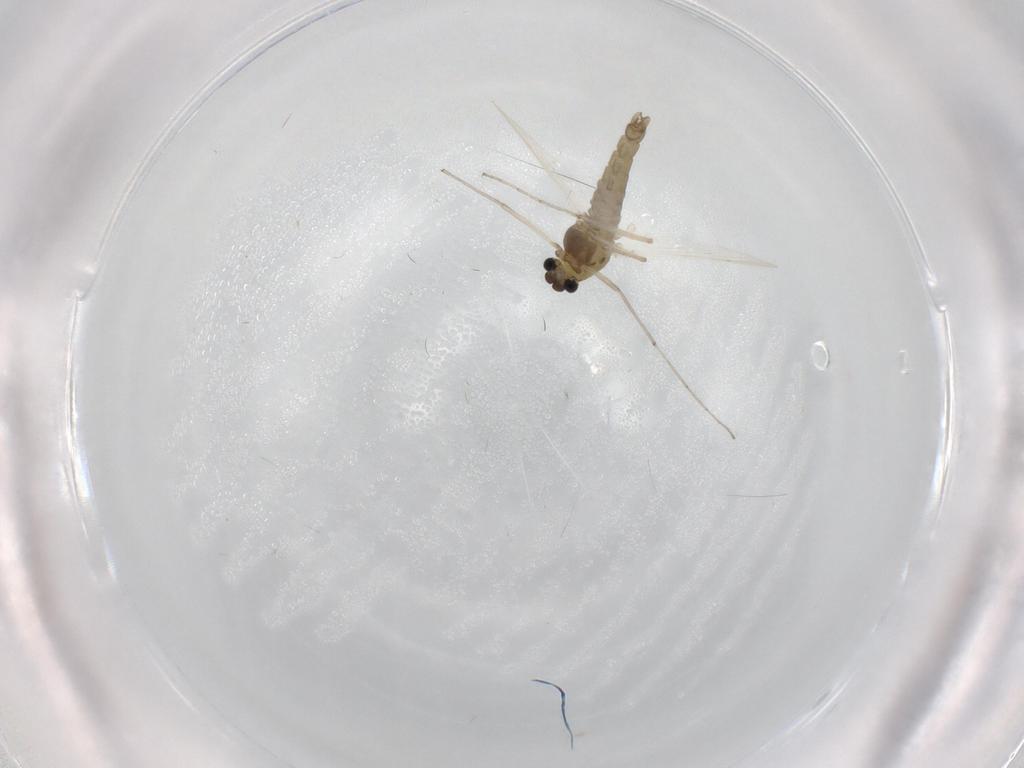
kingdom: Animalia
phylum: Arthropoda
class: Insecta
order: Diptera
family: Chironomidae
